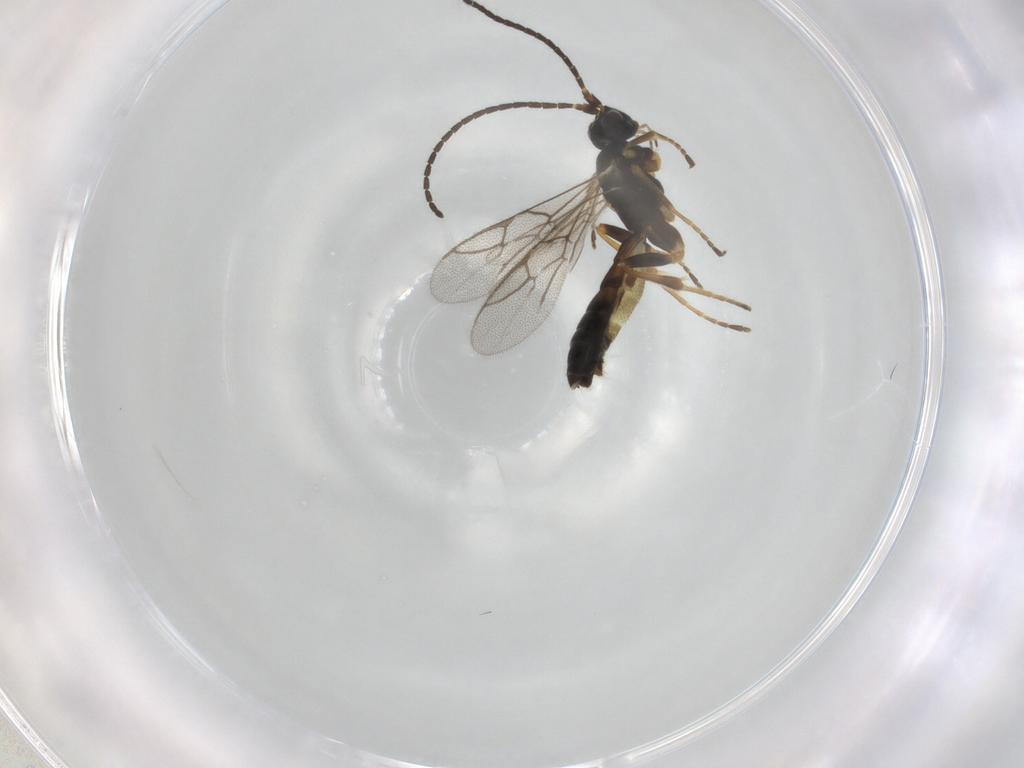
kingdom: Animalia
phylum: Arthropoda
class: Insecta
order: Hymenoptera
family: Ichneumonidae
